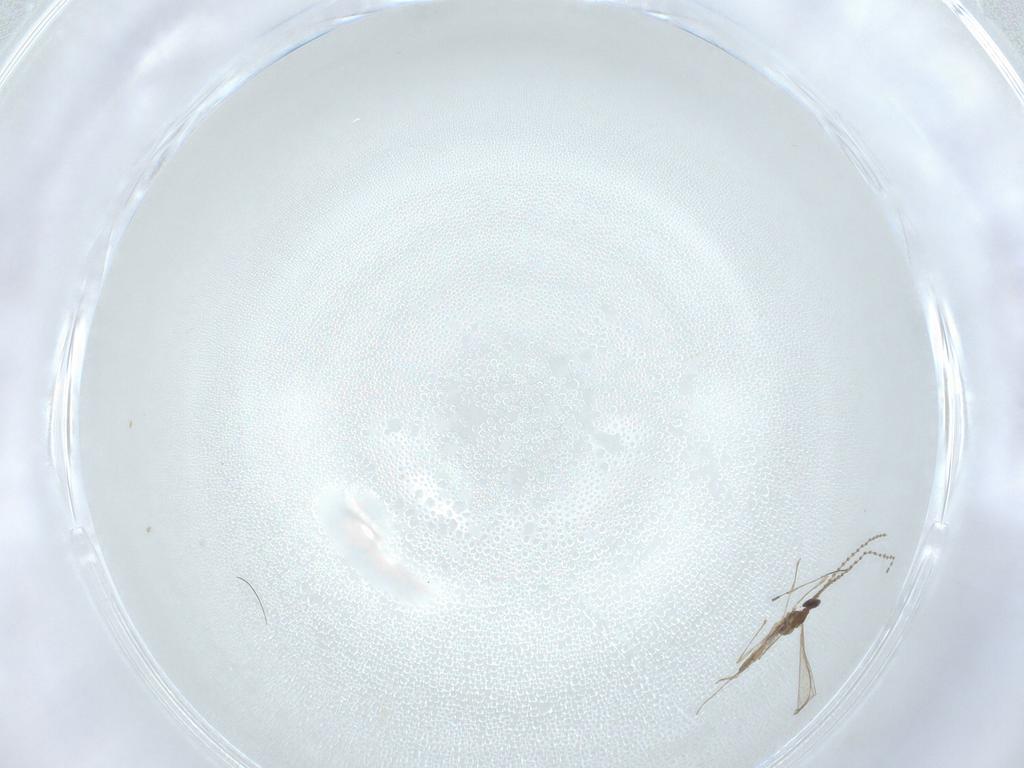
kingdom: Animalia
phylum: Arthropoda
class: Insecta
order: Diptera
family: Cecidomyiidae
